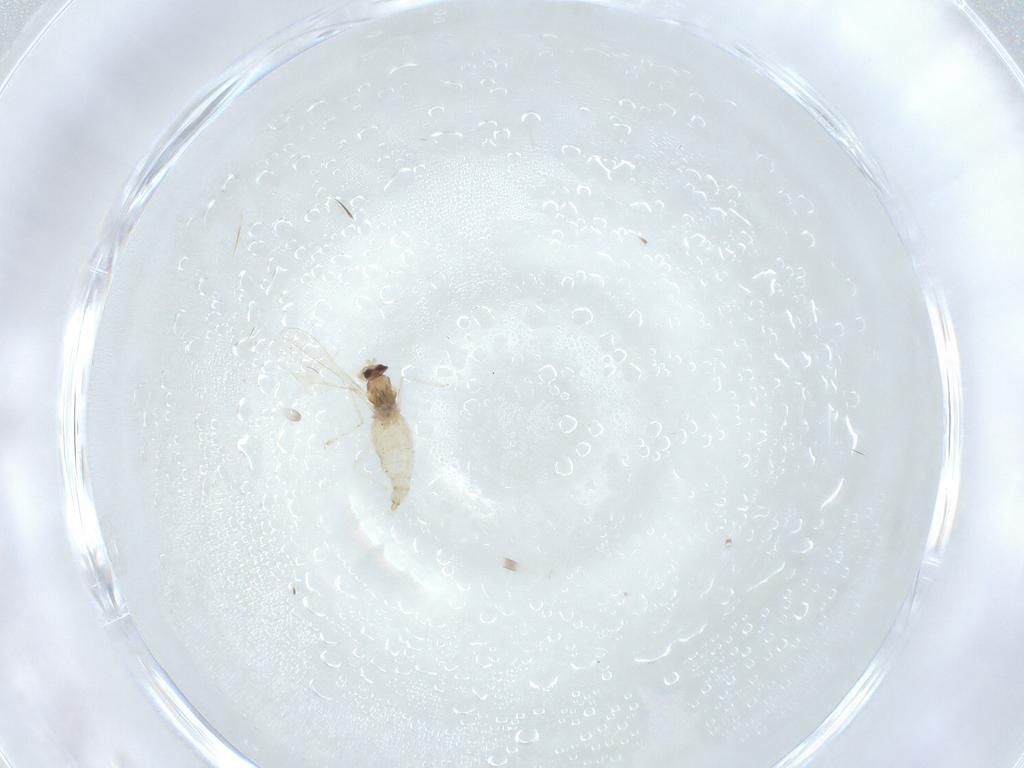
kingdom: Animalia
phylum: Arthropoda
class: Insecta
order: Diptera
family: Cecidomyiidae
